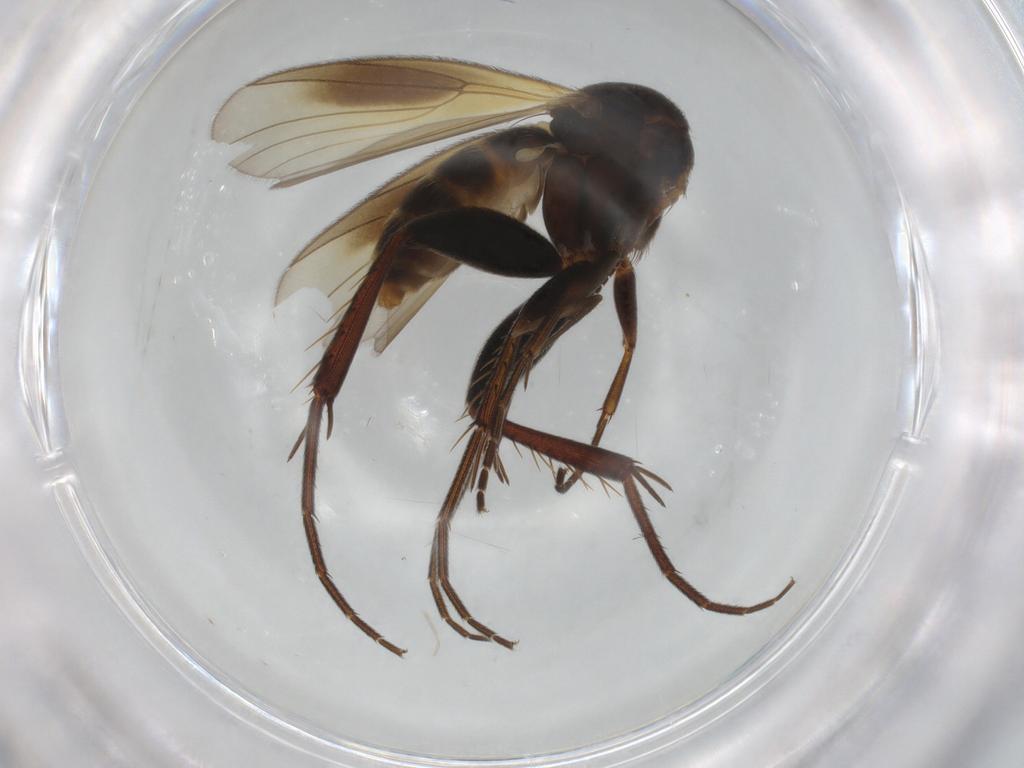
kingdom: Animalia
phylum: Arthropoda
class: Insecta
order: Diptera
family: Chironomidae
